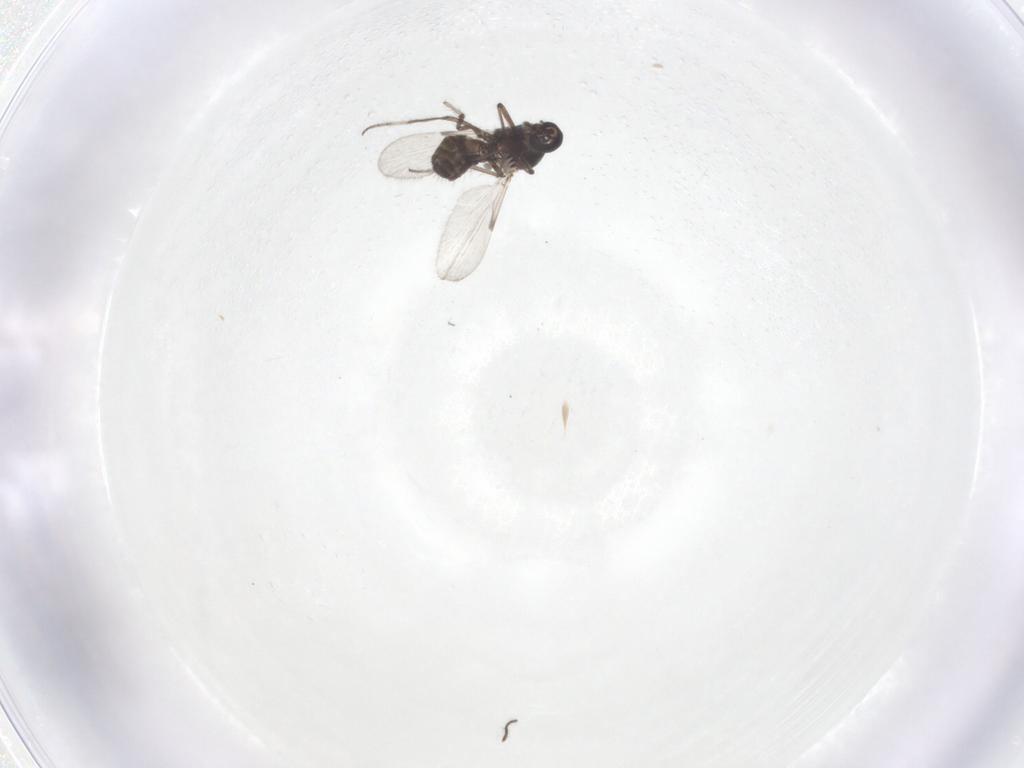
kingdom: Animalia
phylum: Arthropoda
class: Insecta
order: Diptera
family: Ceratopogonidae
